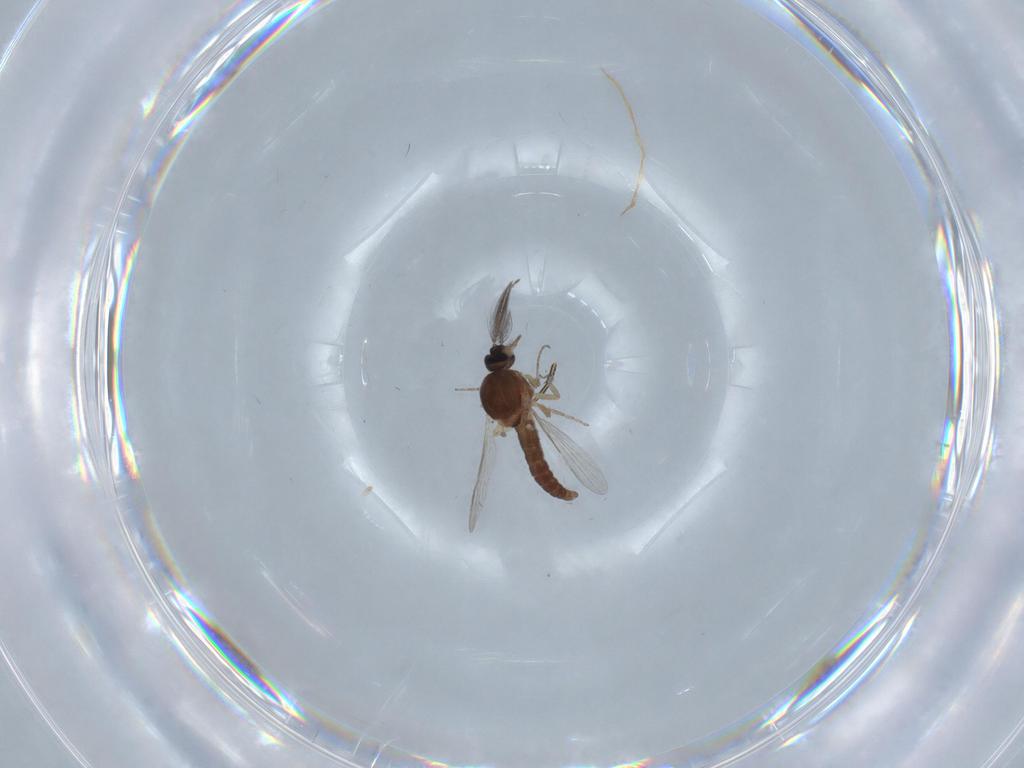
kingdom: Animalia
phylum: Arthropoda
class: Insecta
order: Diptera
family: Ceratopogonidae
